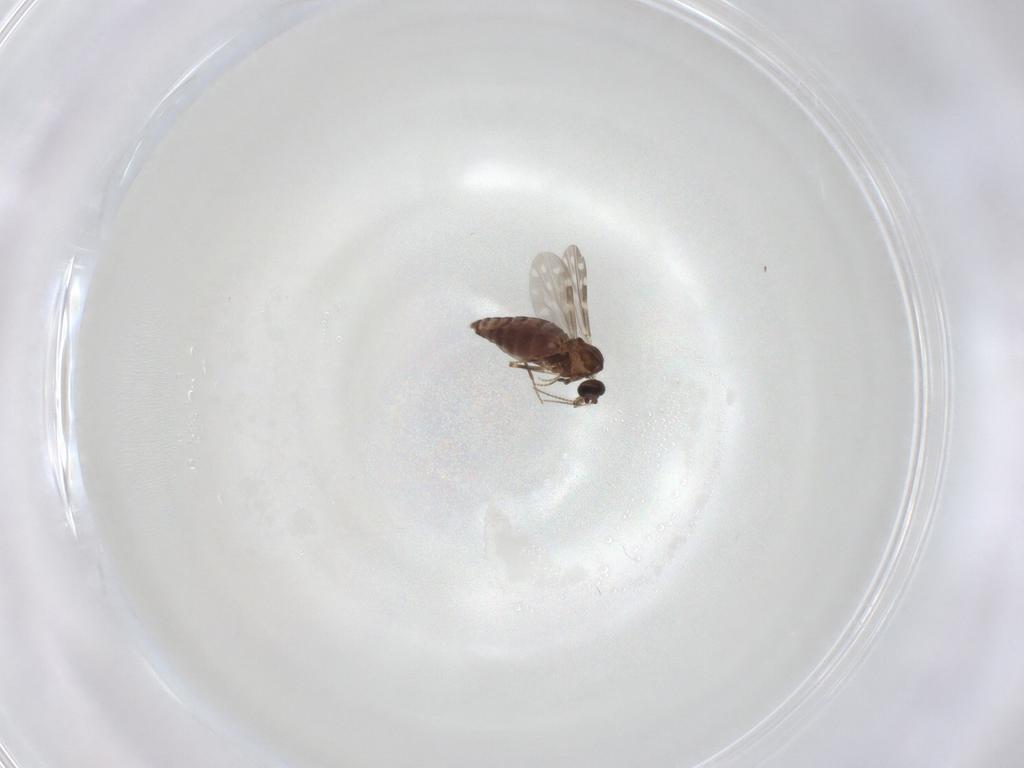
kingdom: Animalia
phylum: Arthropoda
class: Insecta
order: Diptera
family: Ceratopogonidae
